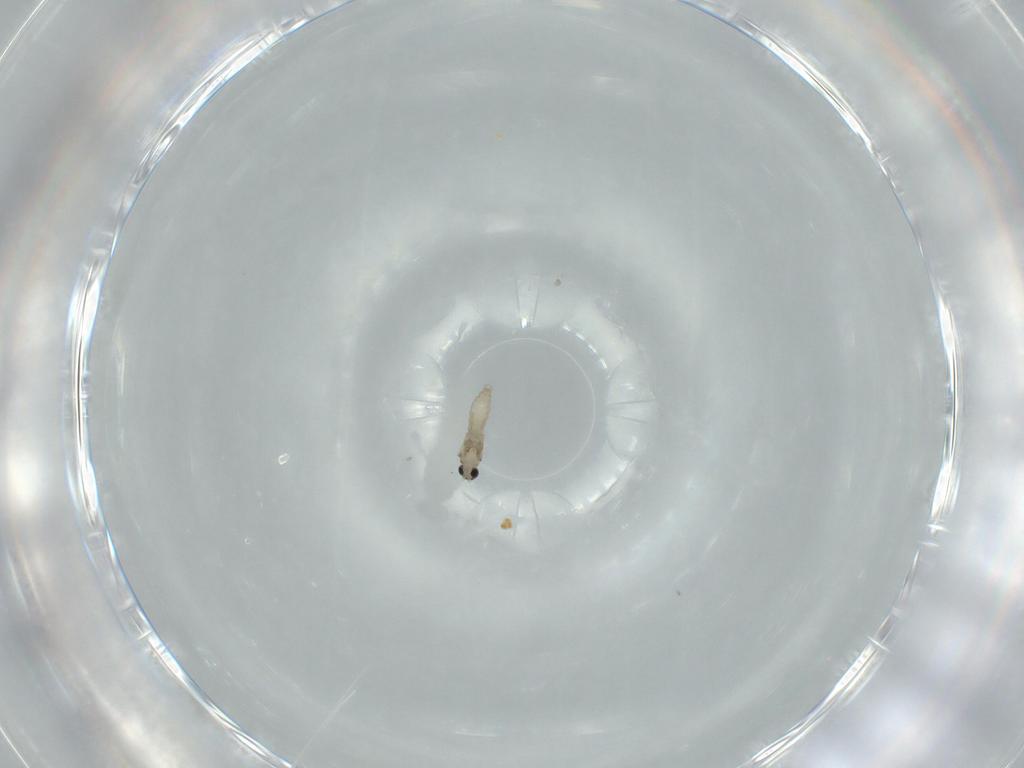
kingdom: Animalia
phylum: Arthropoda
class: Insecta
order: Diptera
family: Cecidomyiidae
